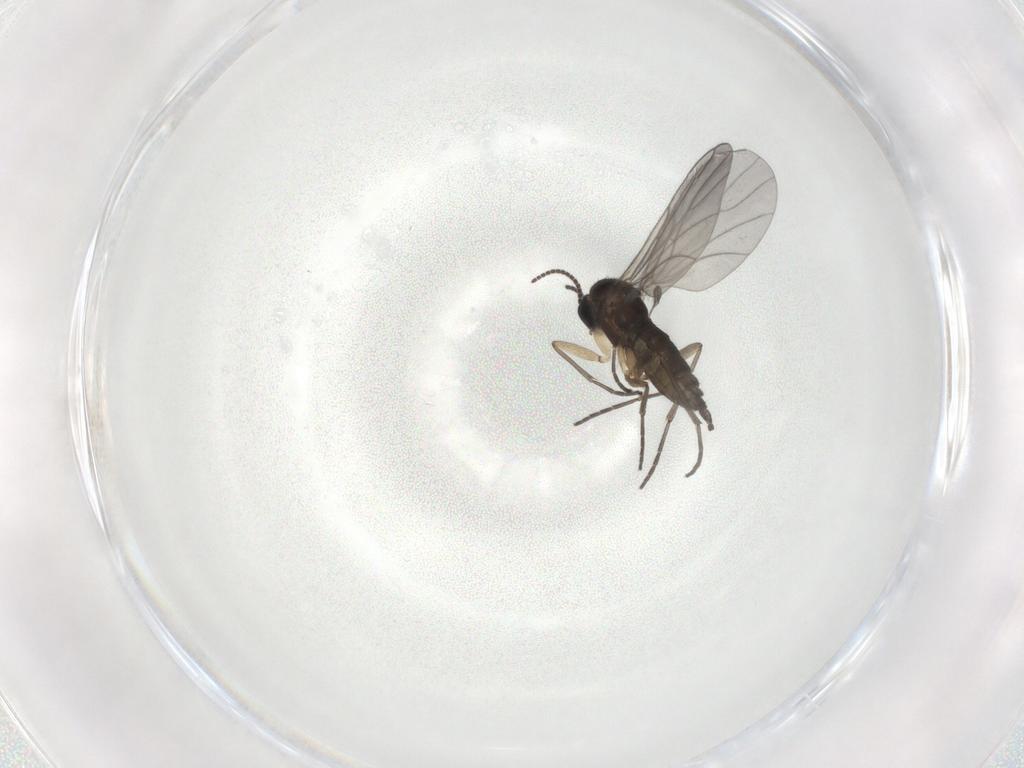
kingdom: Animalia
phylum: Arthropoda
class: Insecta
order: Diptera
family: Sciaridae
